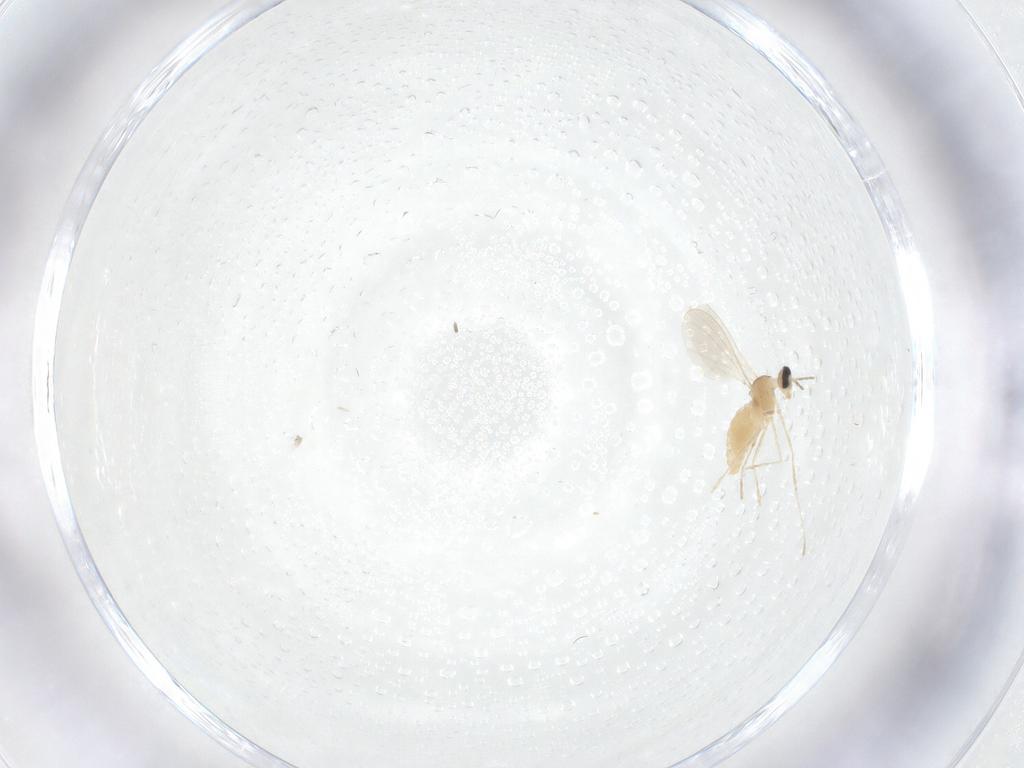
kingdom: Animalia
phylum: Arthropoda
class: Insecta
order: Diptera
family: Cecidomyiidae
